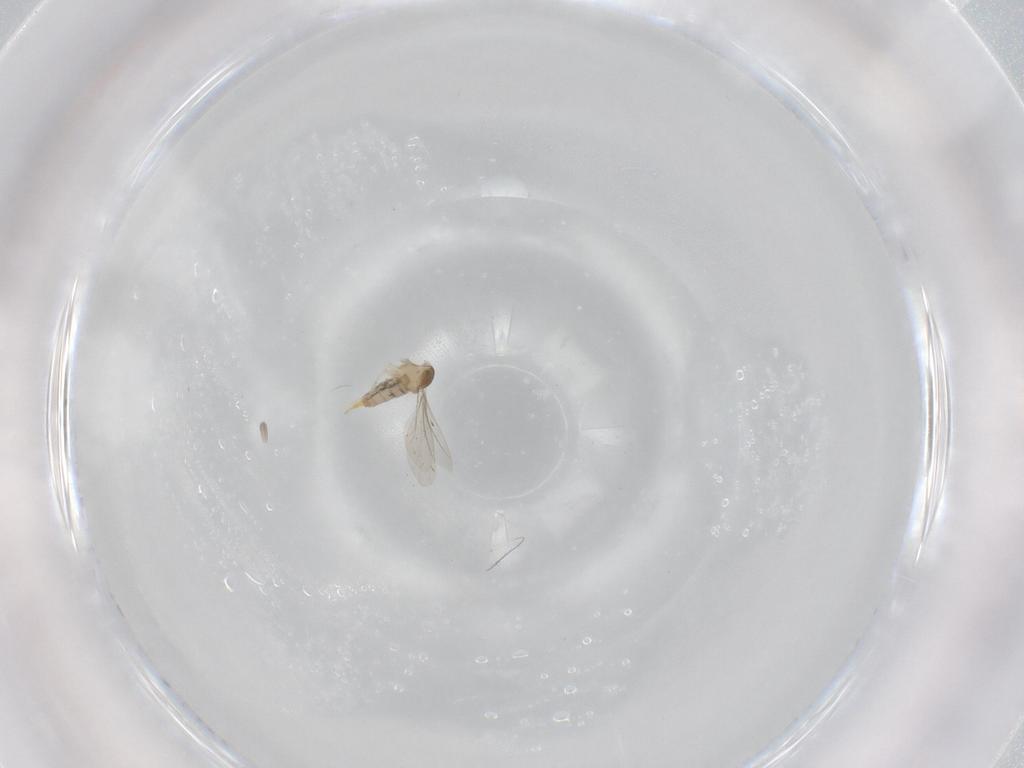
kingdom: Animalia
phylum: Arthropoda
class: Insecta
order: Diptera
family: Cecidomyiidae
